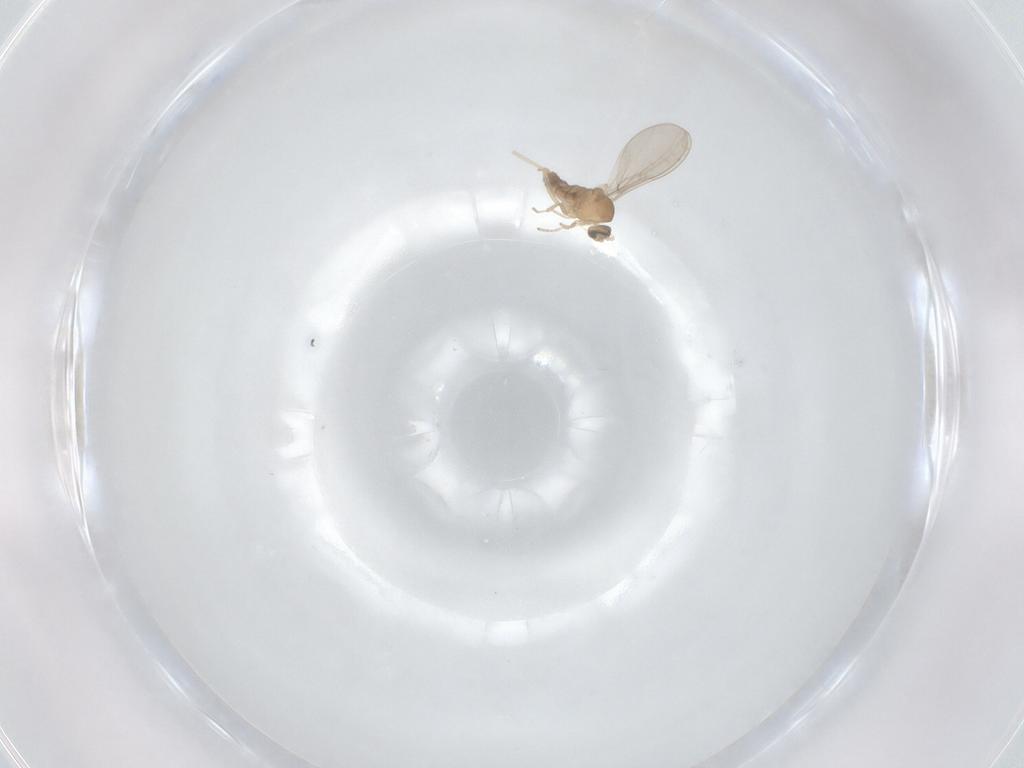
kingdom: Animalia
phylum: Arthropoda
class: Insecta
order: Diptera
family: Cecidomyiidae
